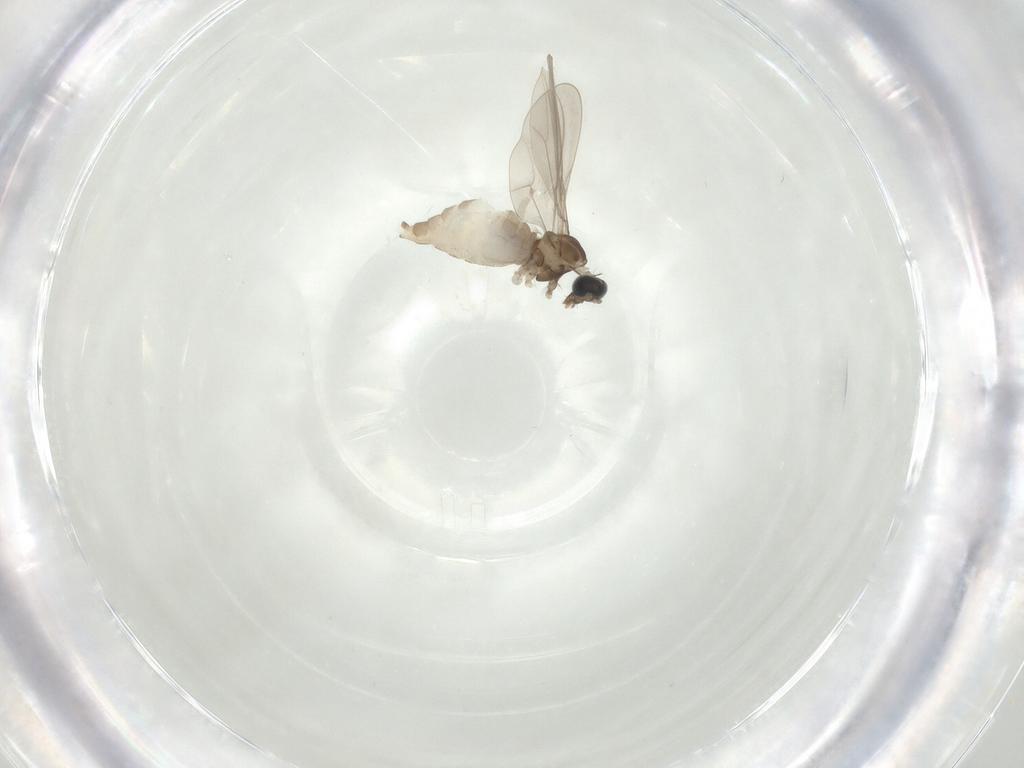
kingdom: Animalia
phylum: Arthropoda
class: Insecta
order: Diptera
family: Cecidomyiidae
